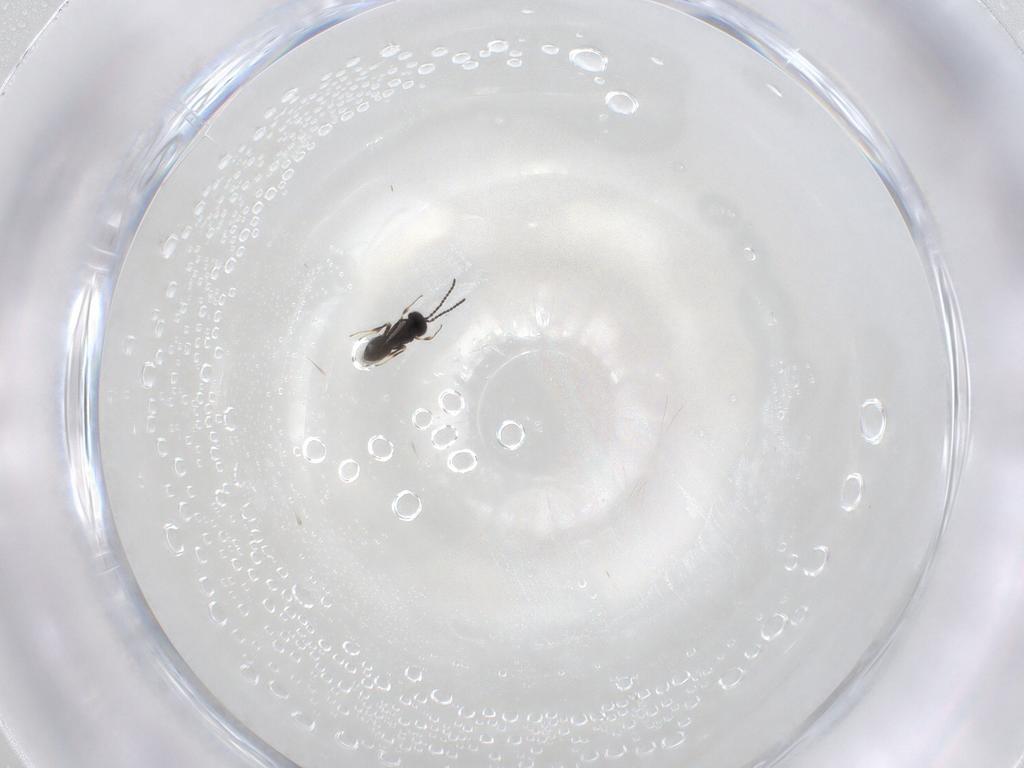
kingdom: Animalia
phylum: Arthropoda
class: Insecta
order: Hymenoptera
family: Scelionidae
